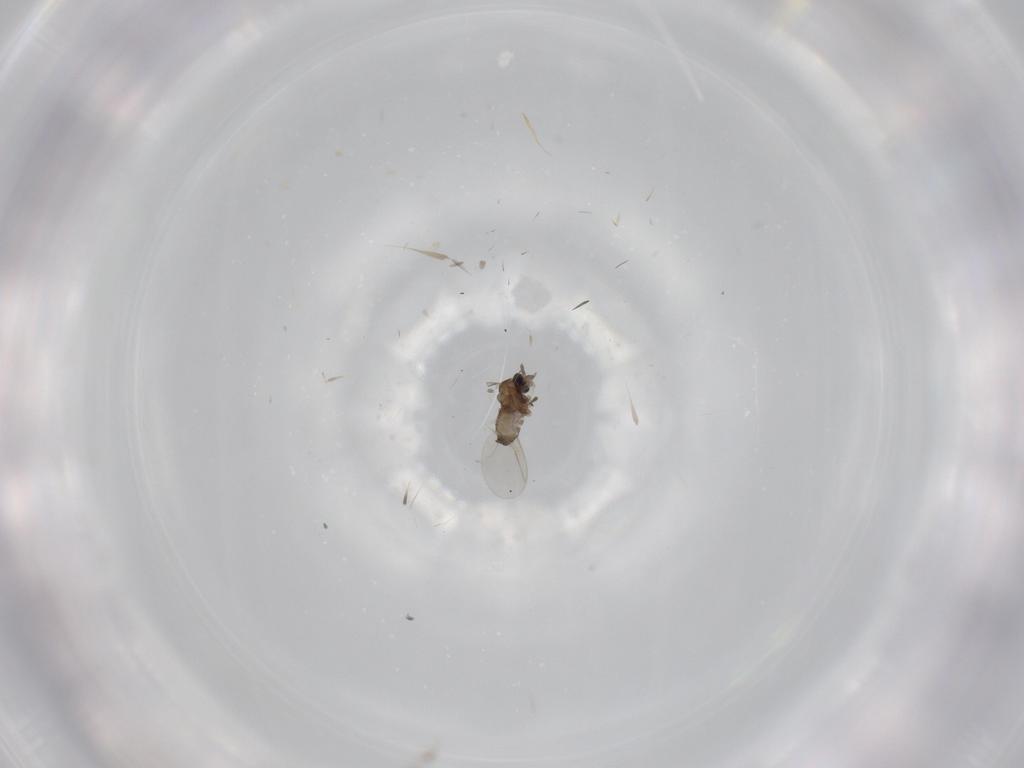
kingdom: Animalia
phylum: Arthropoda
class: Insecta
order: Diptera
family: Cecidomyiidae
